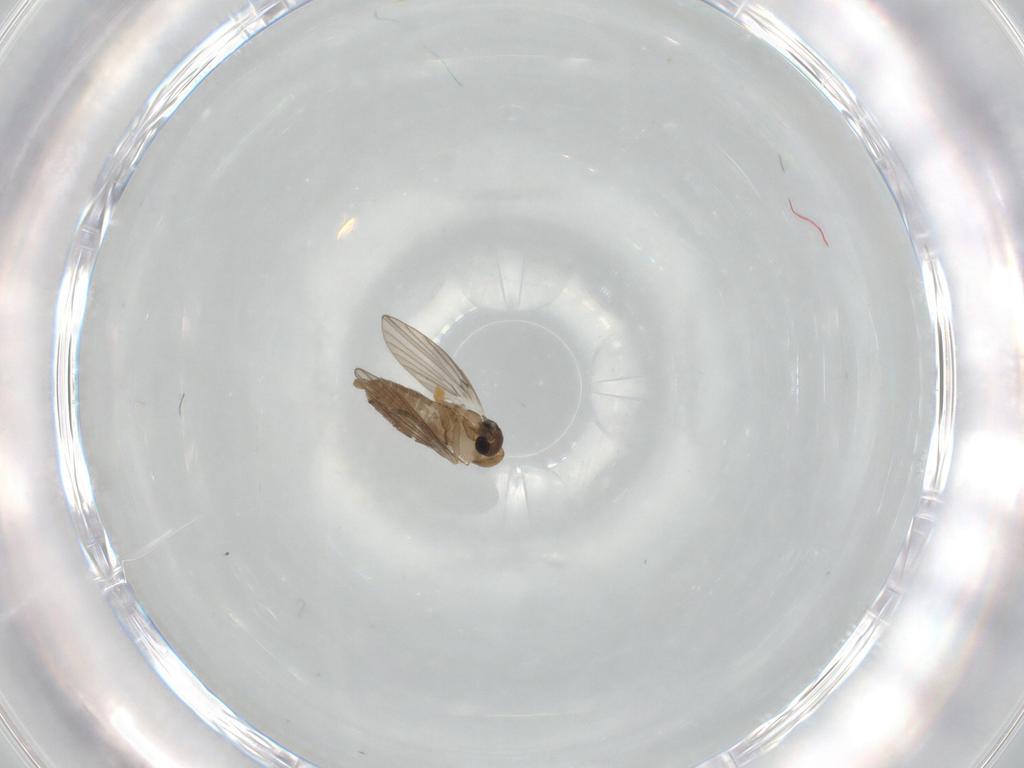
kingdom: Animalia
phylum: Arthropoda
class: Insecta
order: Diptera
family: Psychodidae
